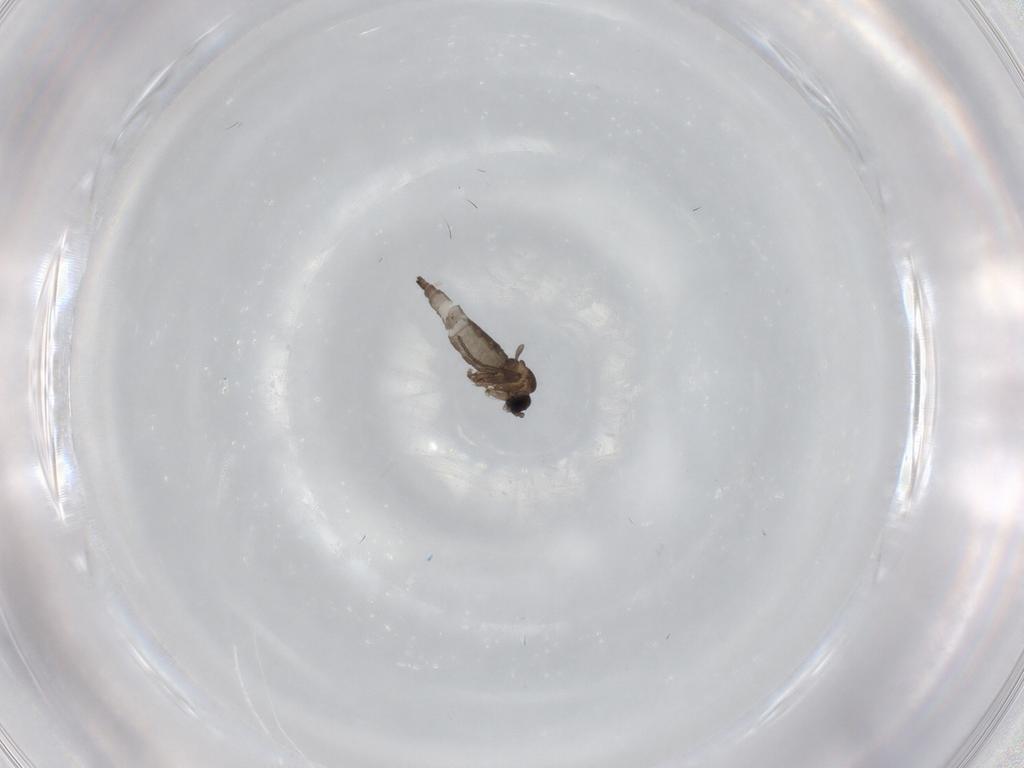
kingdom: Animalia
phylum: Arthropoda
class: Insecta
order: Diptera
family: Sciaridae
